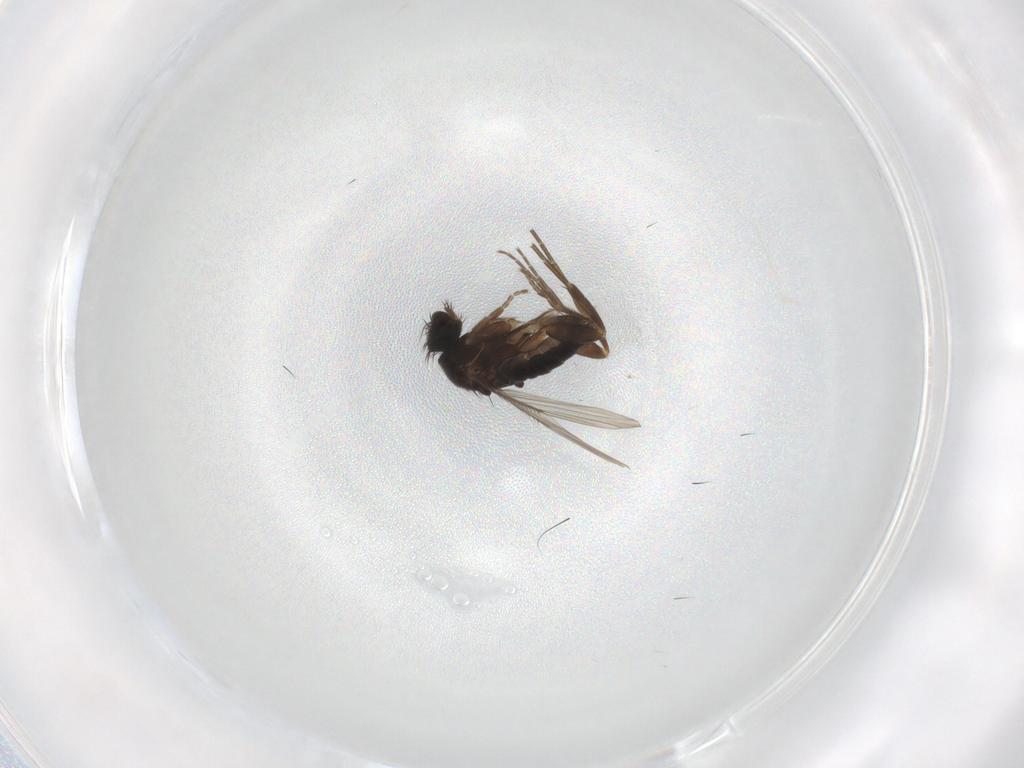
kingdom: Animalia
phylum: Arthropoda
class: Insecta
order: Diptera
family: Phoridae
